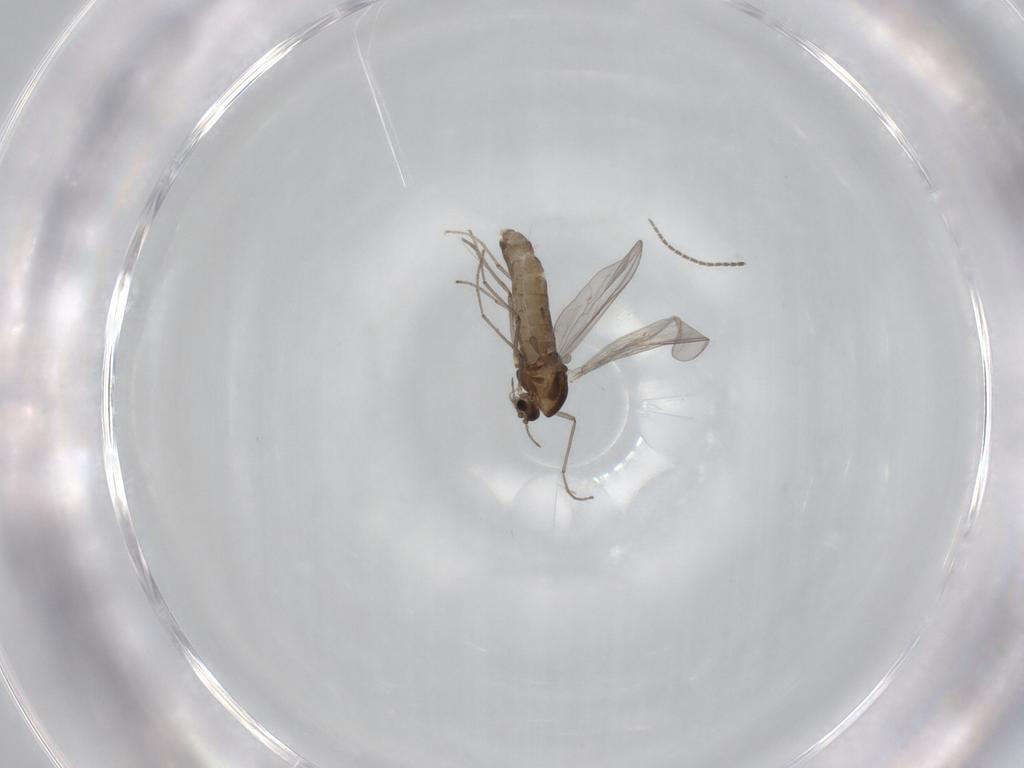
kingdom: Animalia
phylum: Arthropoda
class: Insecta
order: Diptera
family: Chironomidae
